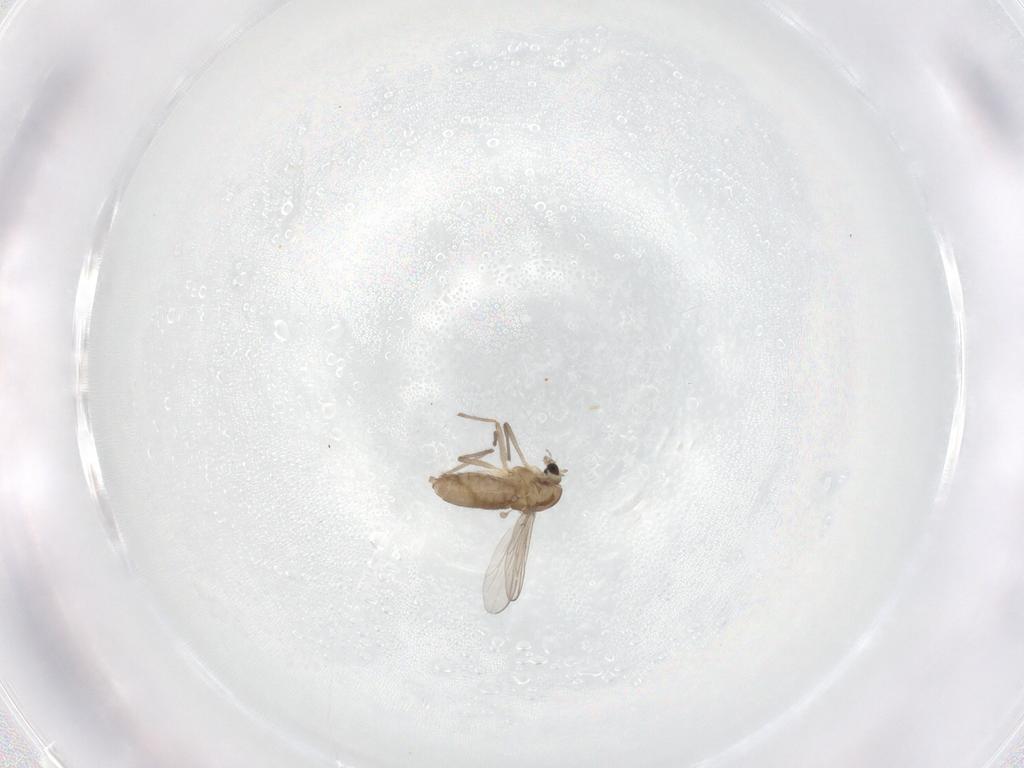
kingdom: Animalia
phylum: Arthropoda
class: Insecta
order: Diptera
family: Chironomidae
